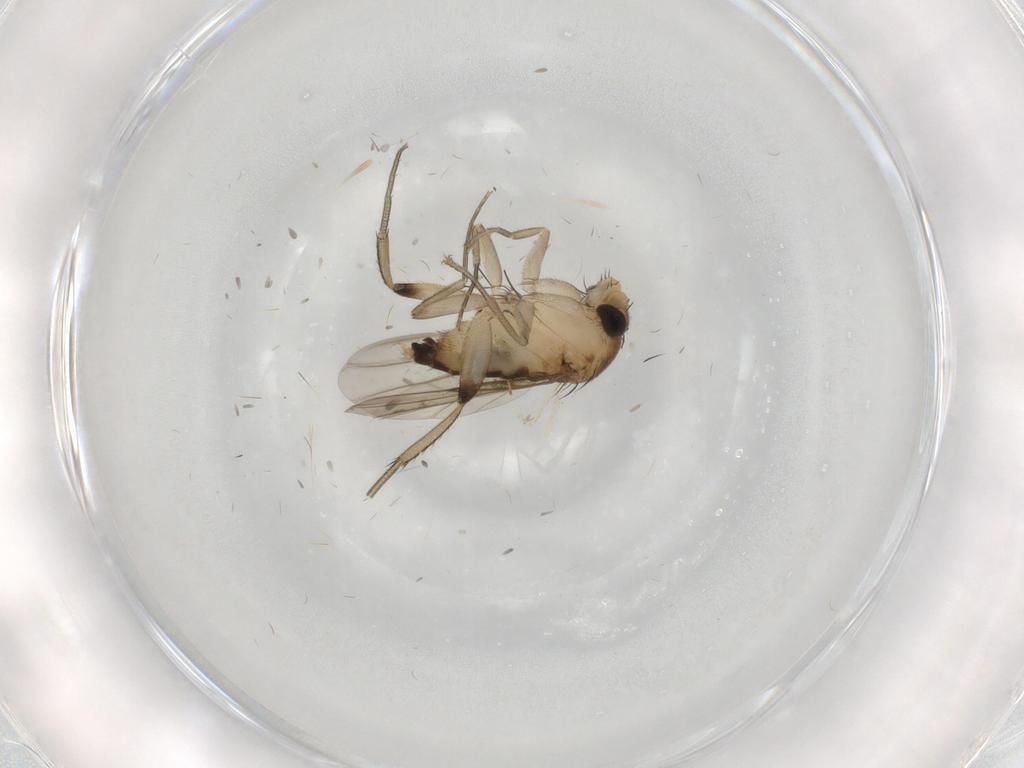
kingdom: Animalia
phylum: Arthropoda
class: Insecta
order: Diptera
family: Phoridae
